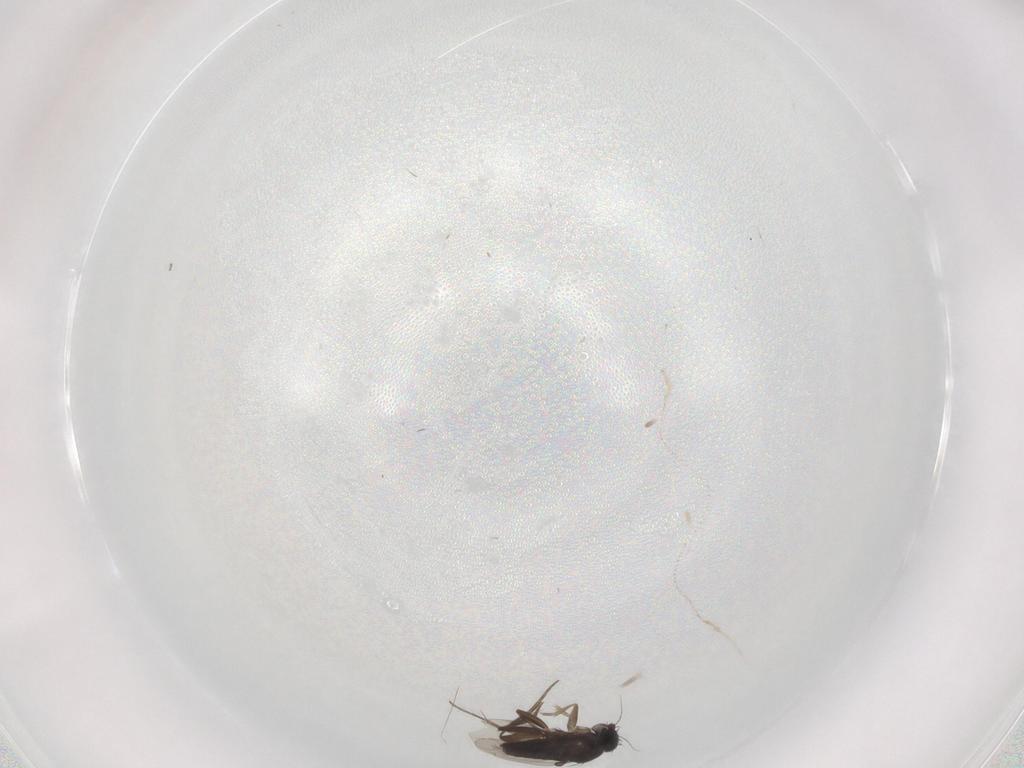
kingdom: Animalia
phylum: Arthropoda
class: Insecta
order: Diptera
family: Phoridae
